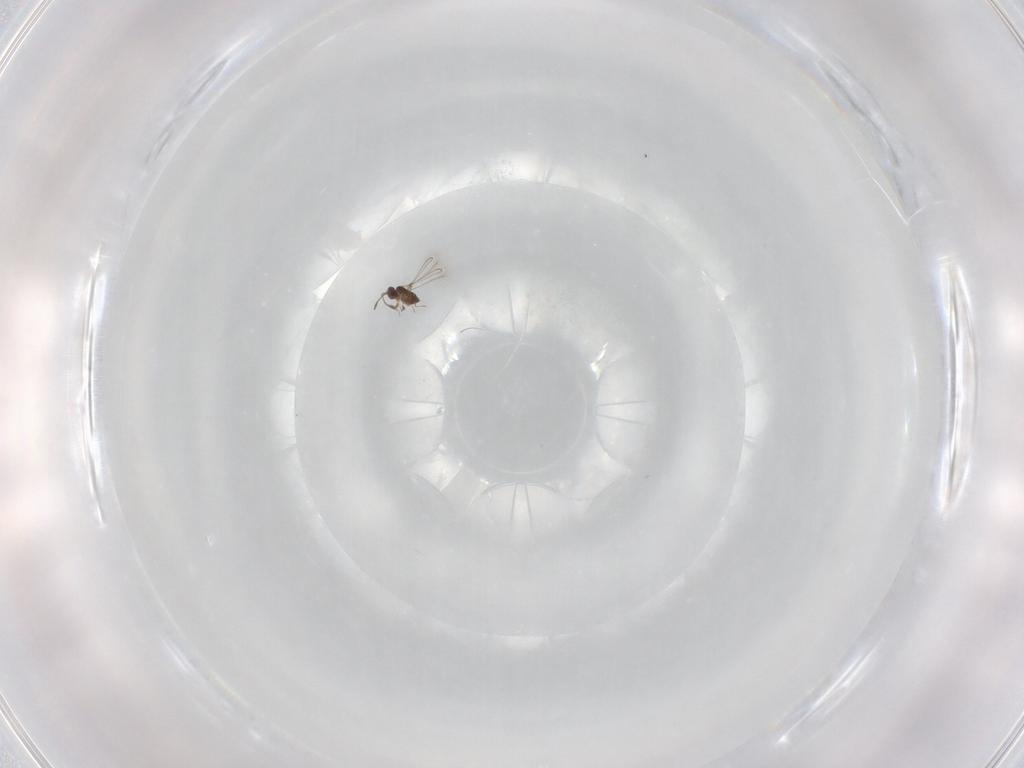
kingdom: Animalia
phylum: Arthropoda
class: Insecta
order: Hymenoptera
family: Mymaridae
